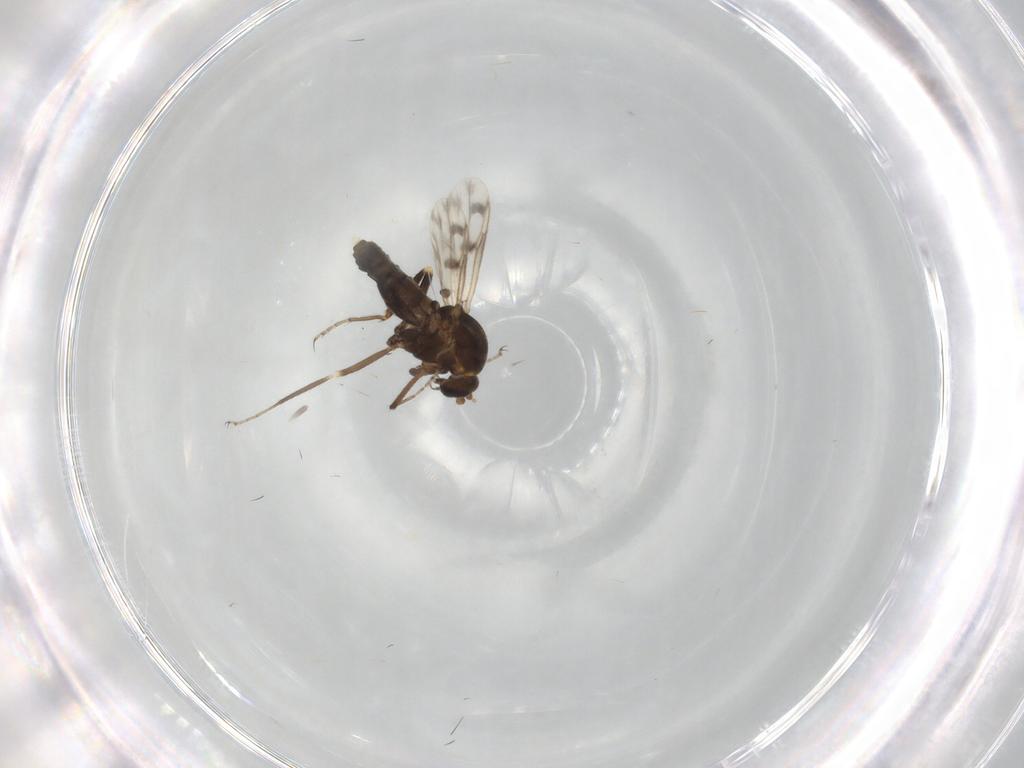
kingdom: Animalia
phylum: Arthropoda
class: Insecta
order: Diptera
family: Ceratopogonidae
